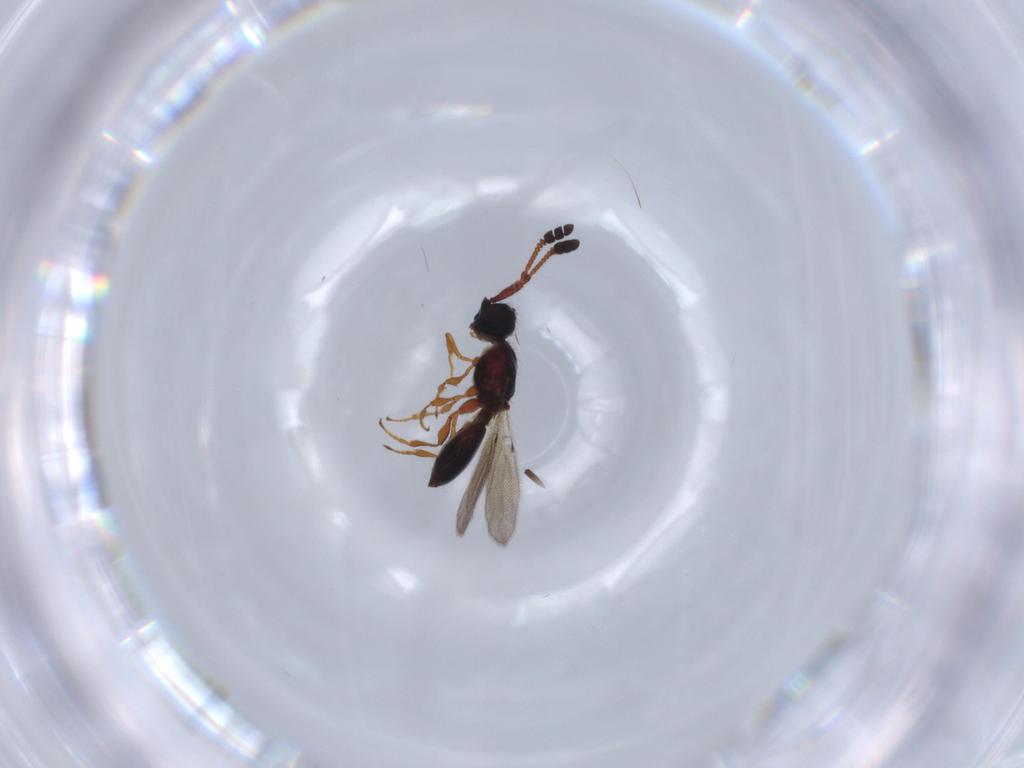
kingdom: Animalia
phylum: Arthropoda
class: Insecta
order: Hymenoptera
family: Diapriidae
